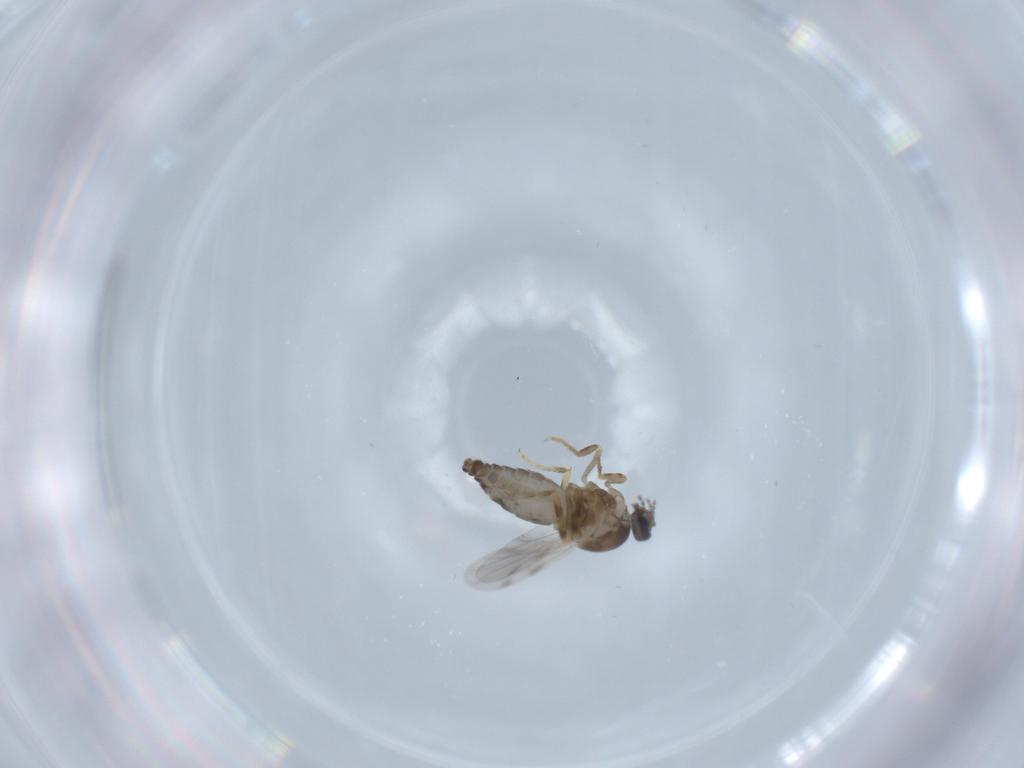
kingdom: Animalia
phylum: Arthropoda
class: Insecta
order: Diptera
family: Ceratopogonidae
